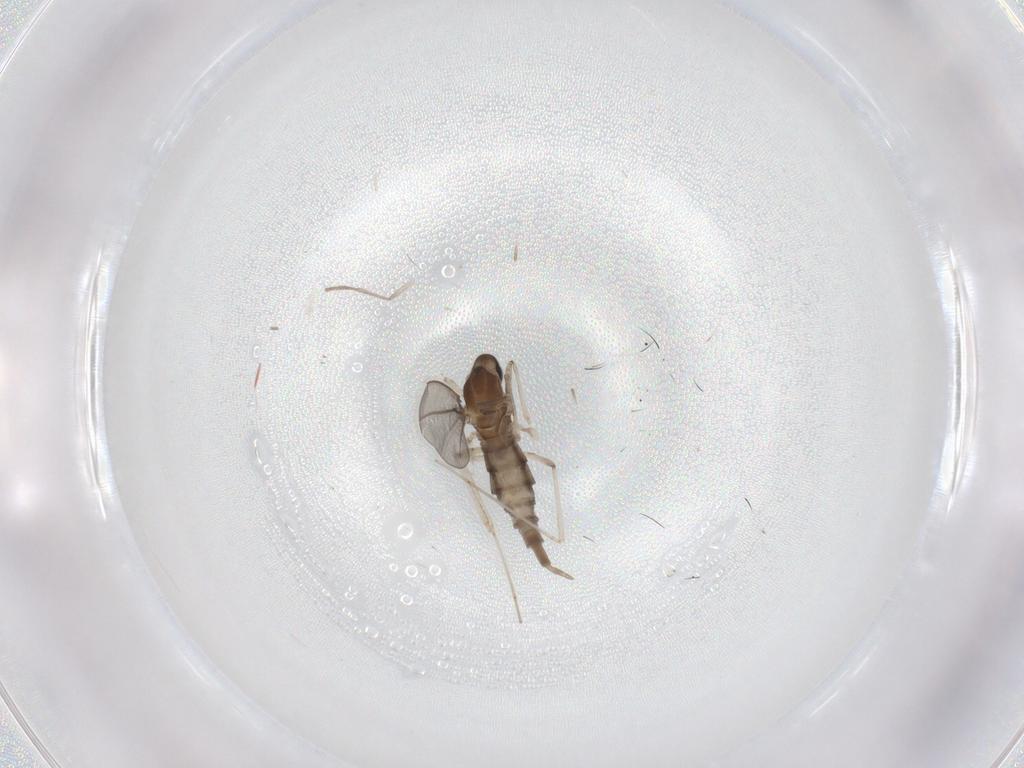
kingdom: Animalia
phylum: Arthropoda
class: Insecta
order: Diptera
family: Psychodidae
